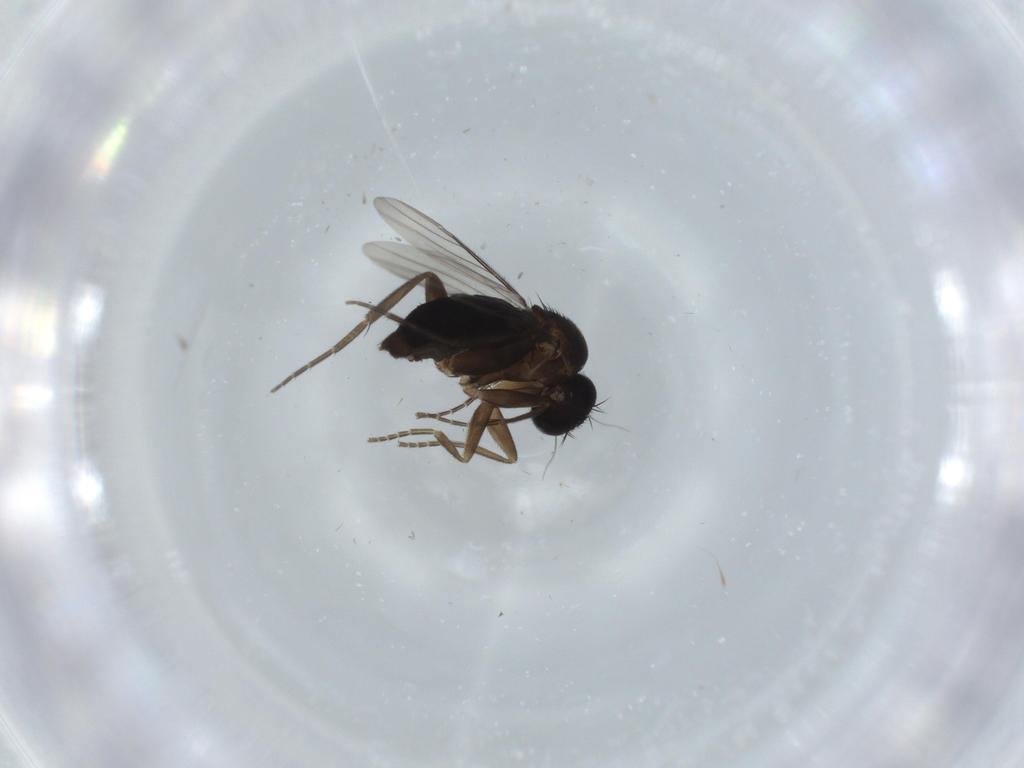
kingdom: Animalia
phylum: Arthropoda
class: Insecta
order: Diptera
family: Phoridae
